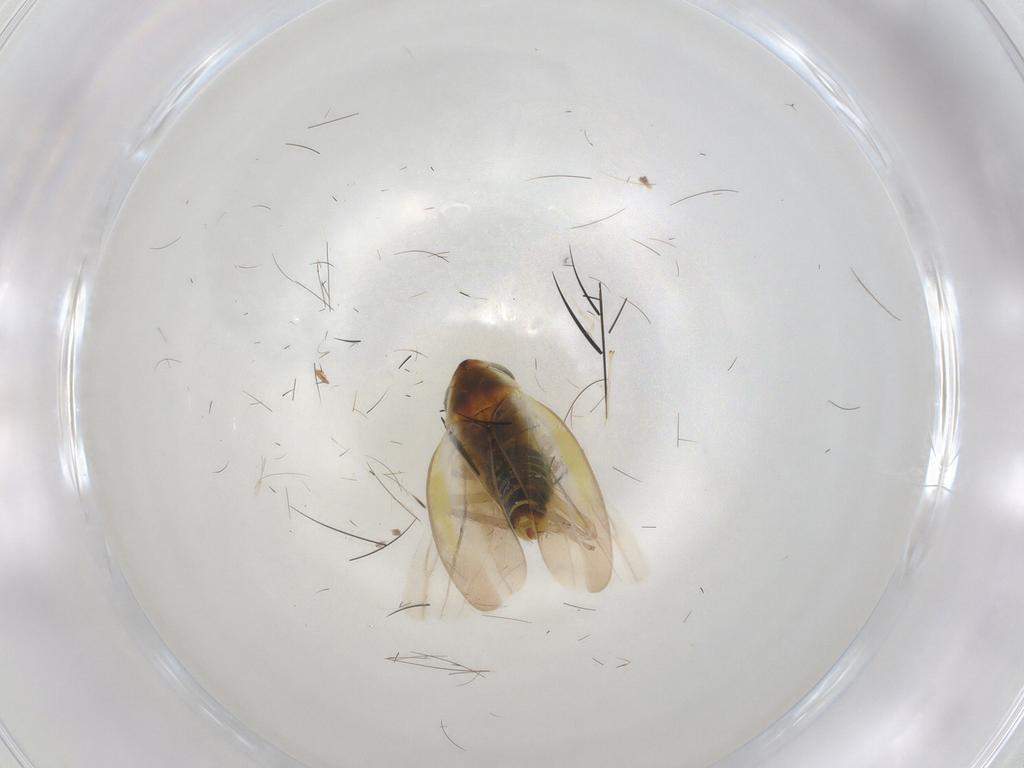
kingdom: Animalia
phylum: Arthropoda
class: Insecta
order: Hemiptera
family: Cicadellidae
